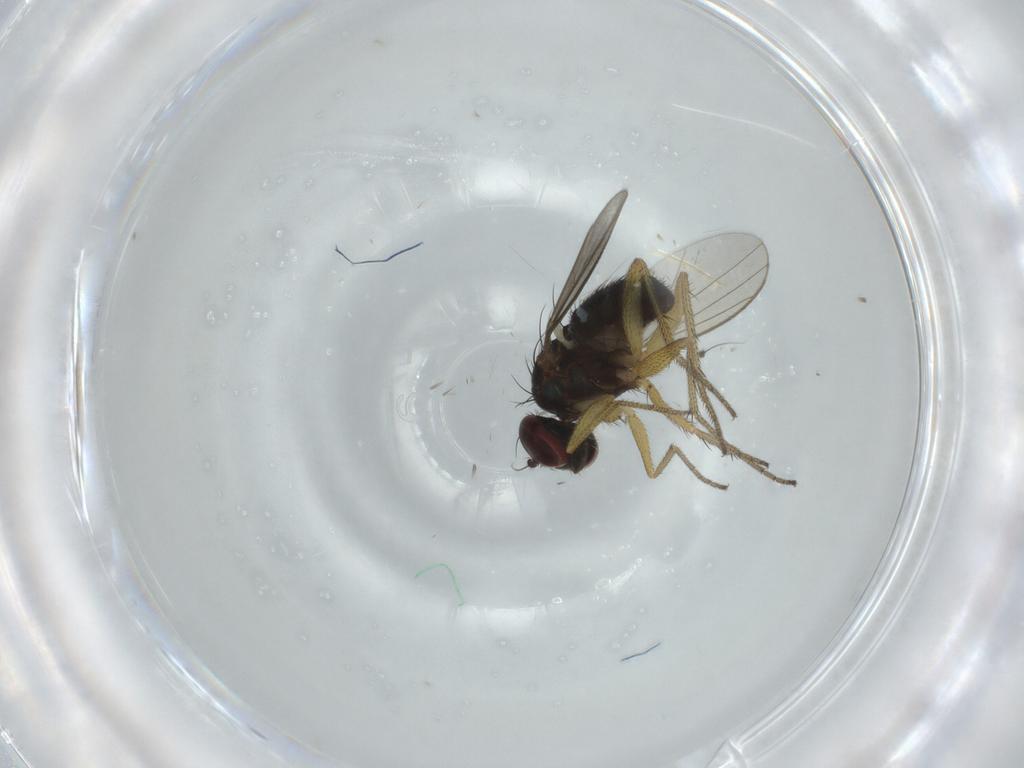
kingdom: Animalia
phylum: Arthropoda
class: Insecta
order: Diptera
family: Dolichopodidae
